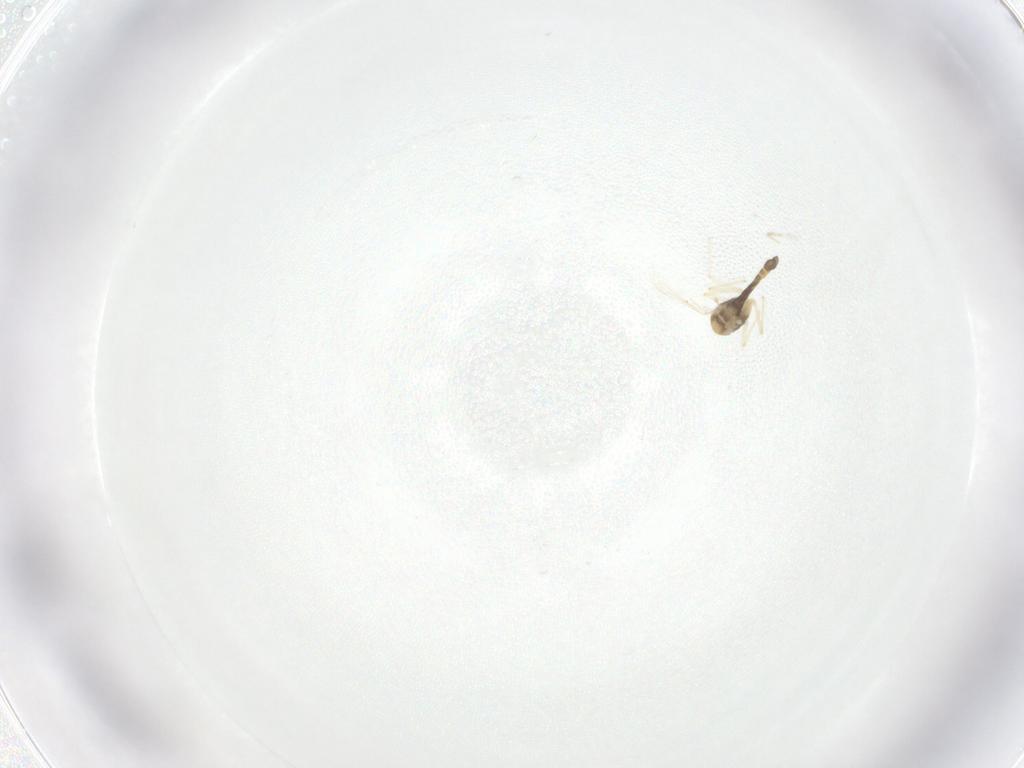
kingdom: Animalia
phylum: Arthropoda
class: Insecta
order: Diptera
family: Chironomidae
